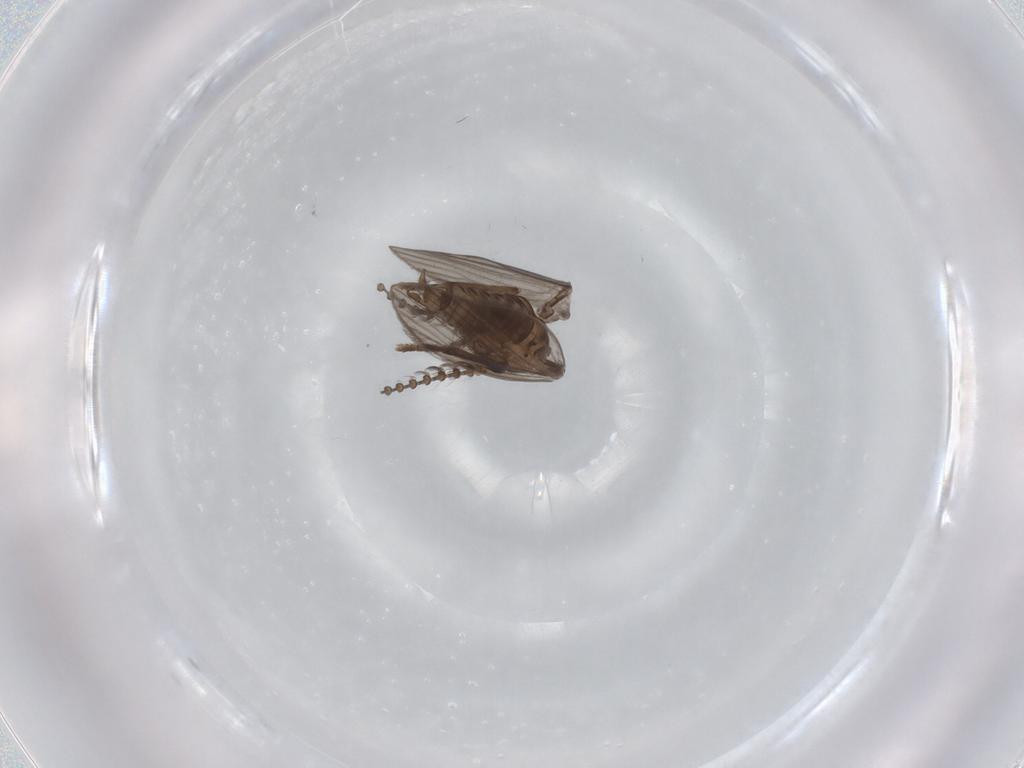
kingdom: Animalia
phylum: Arthropoda
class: Insecta
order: Diptera
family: Psychodidae
